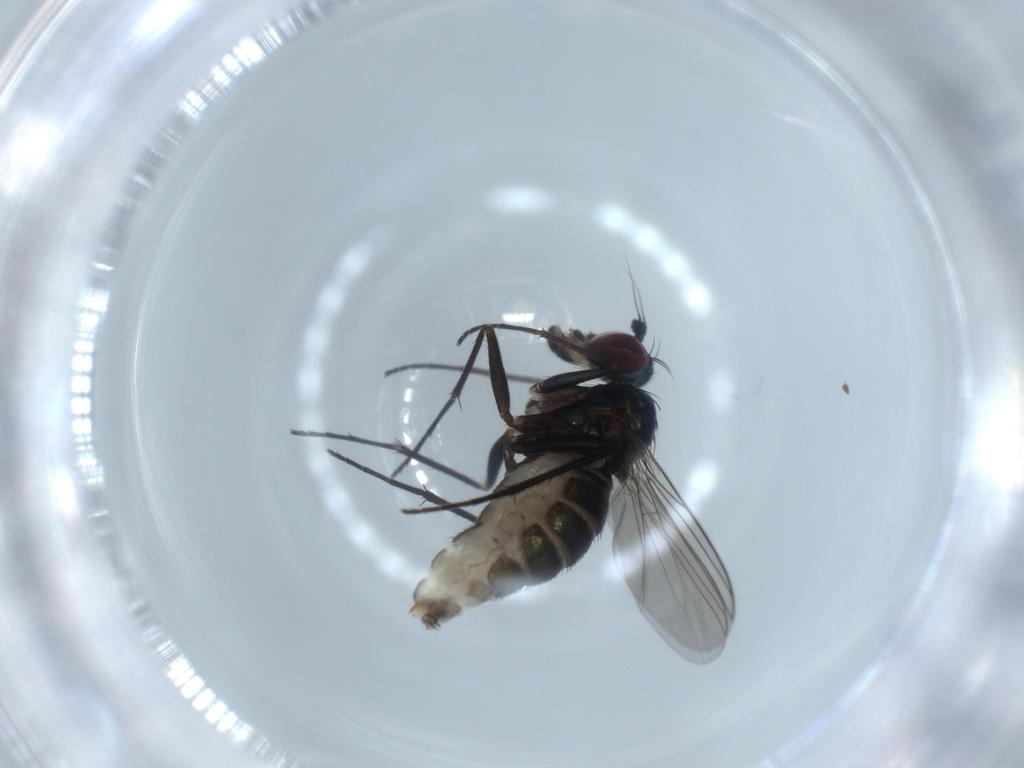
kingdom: Animalia
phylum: Arthropoda
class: Insecta
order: Diptera
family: Dolichopodidae
